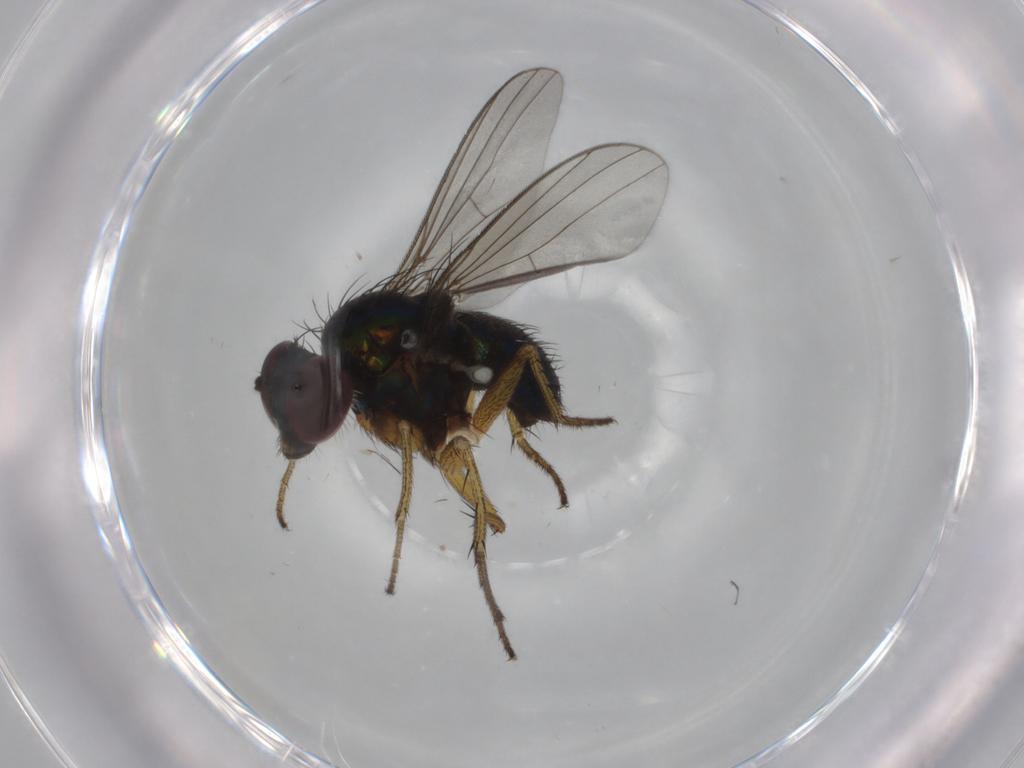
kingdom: Animalia
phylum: Arthropoda
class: Insecta
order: Diptera
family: Dolichopodidae
